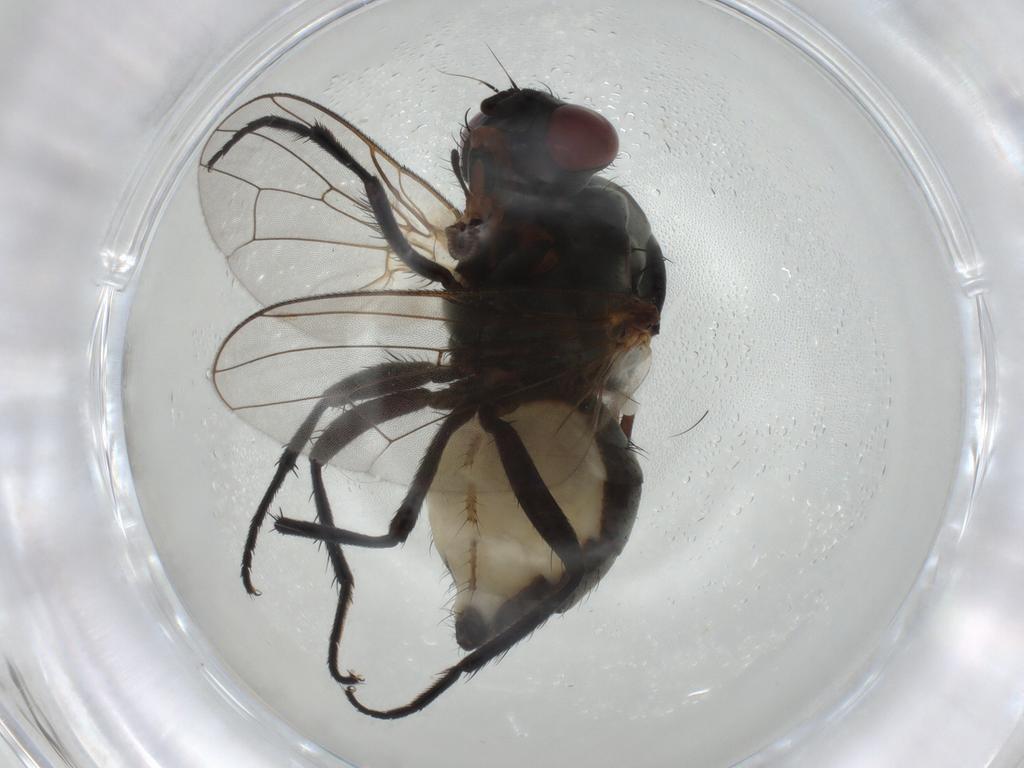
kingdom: Animalia
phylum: Arthropoda
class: Insecta
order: Diptera
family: Anthomyiidae
